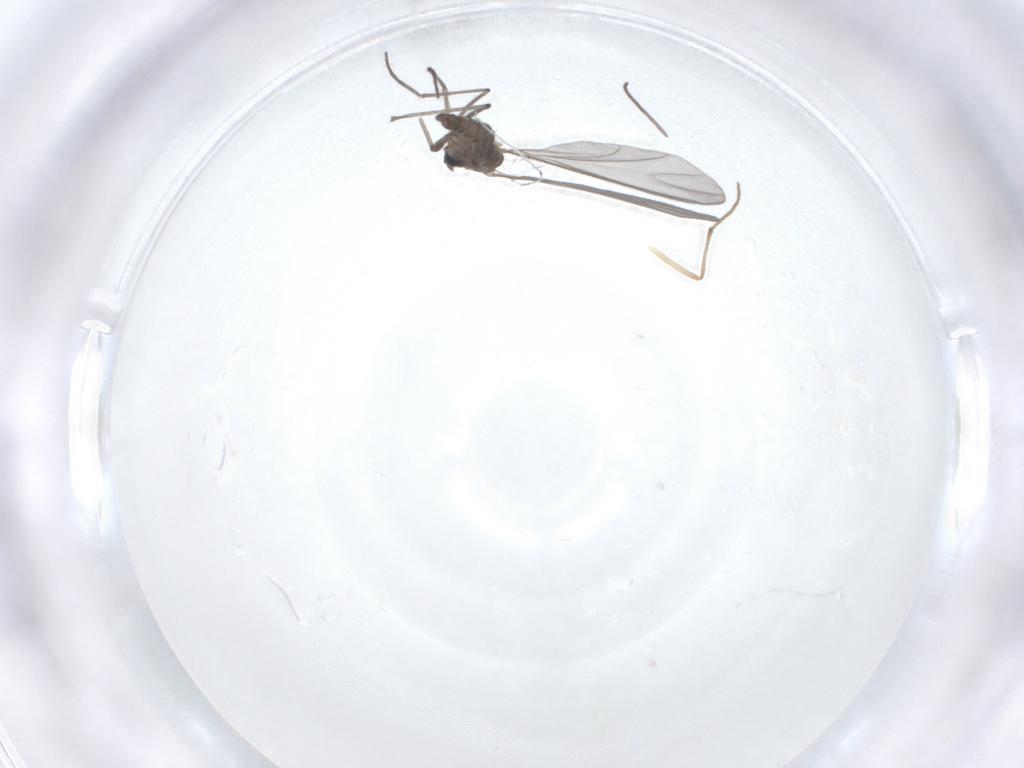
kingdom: Animalia
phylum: Arthropoda
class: Insecta
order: Diptera
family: Sciaridae
